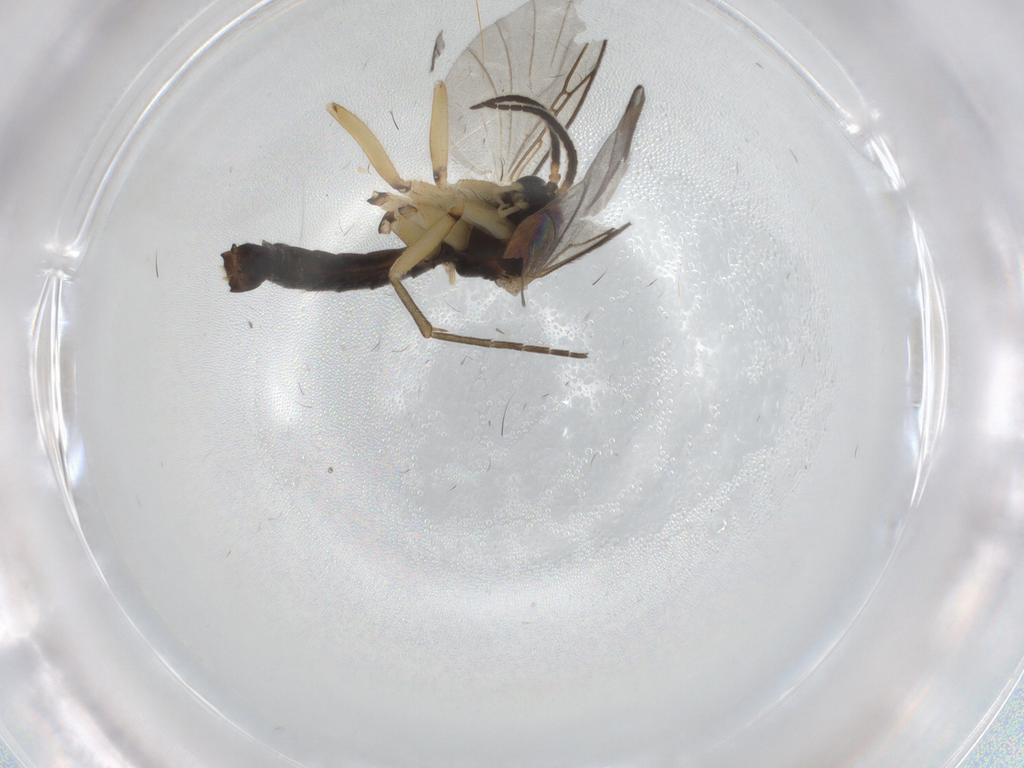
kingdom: Animalia
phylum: Arthropoda
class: Insecta
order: Diptera
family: Mycetophilidae
